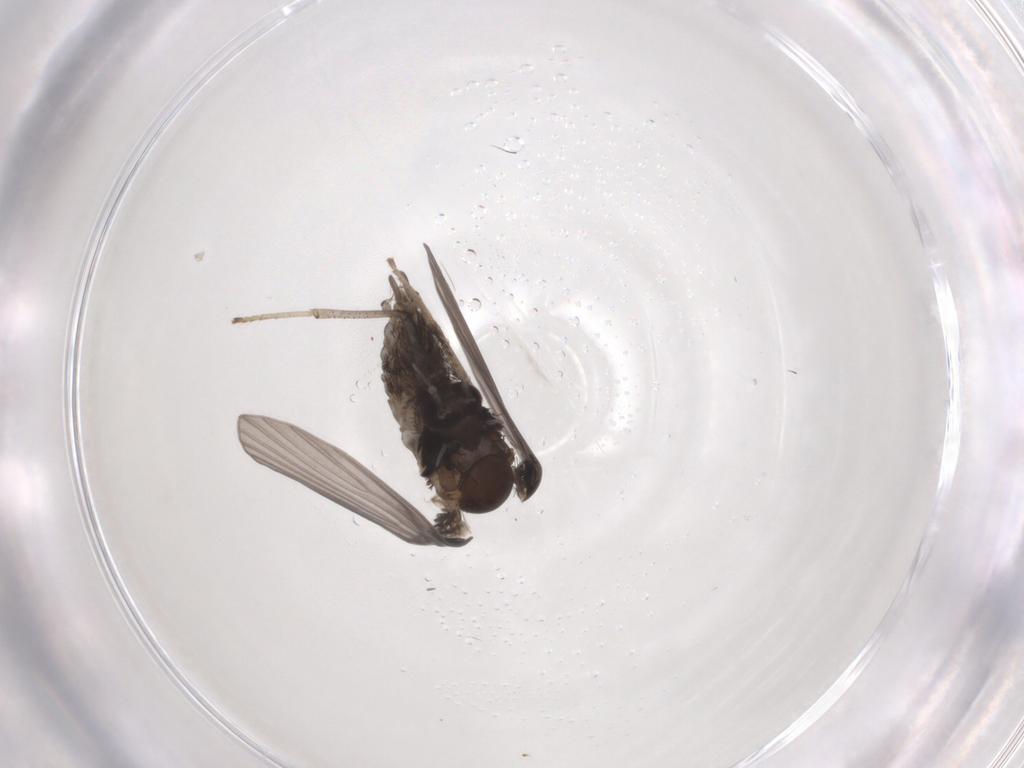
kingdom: Animalia
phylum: Arthropoda
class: Insecta
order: Diptera
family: Psychodidae
